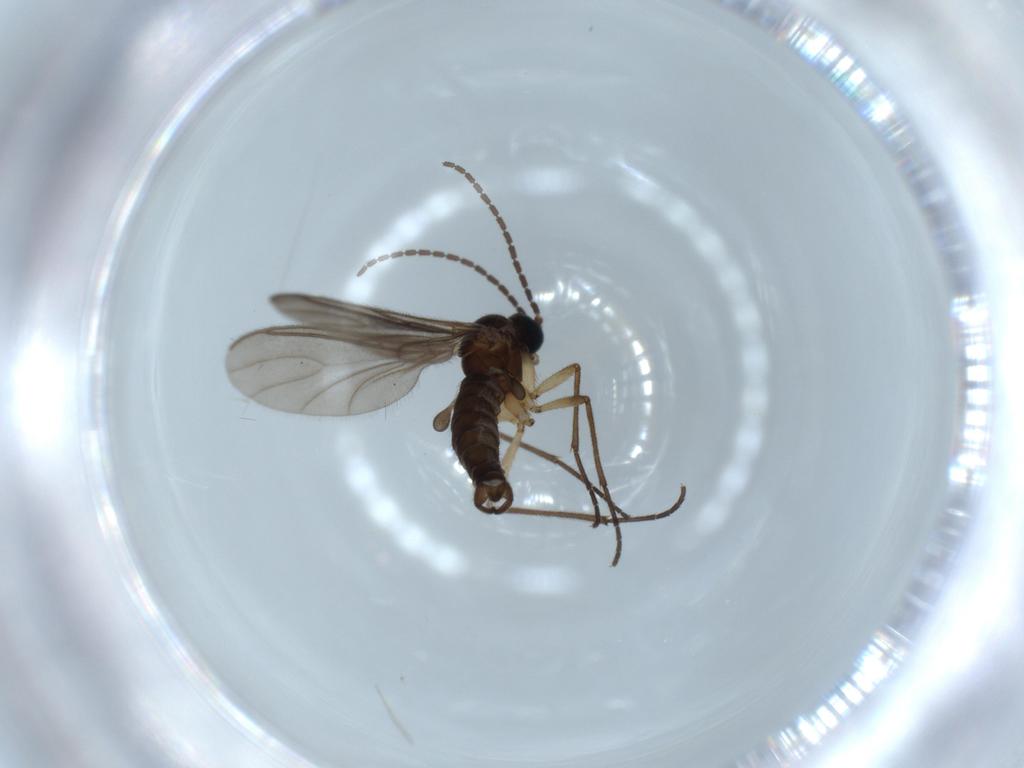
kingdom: Animalia
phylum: Arthropoda
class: Insecta
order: Diptera
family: Sciaridae
